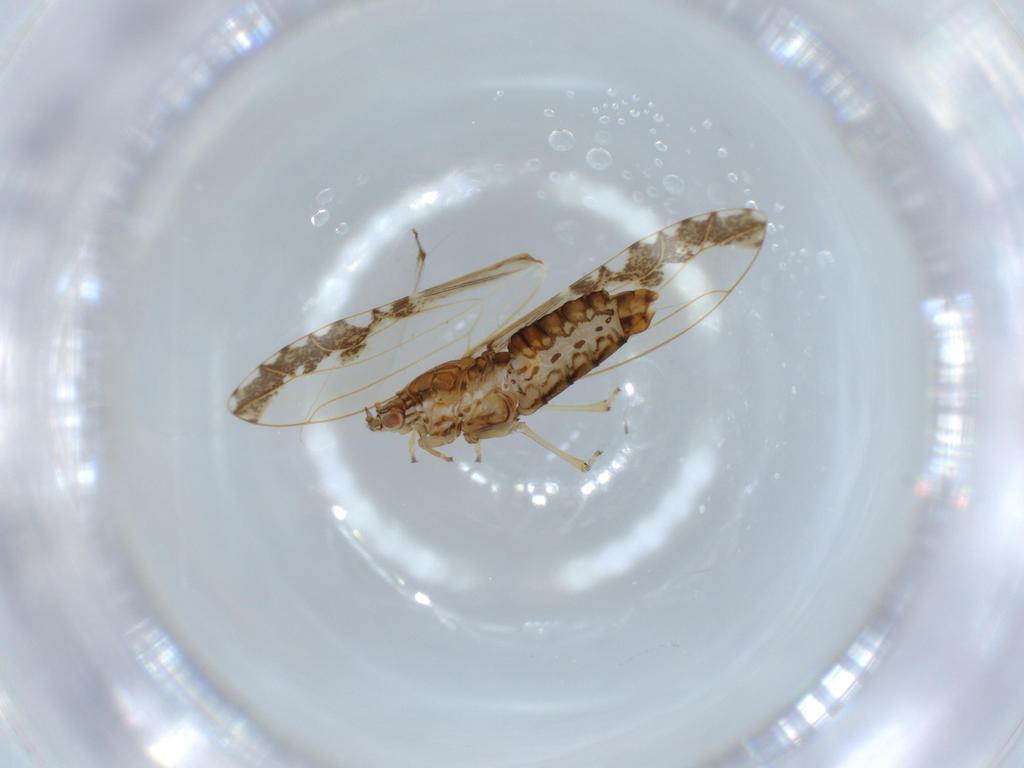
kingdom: Animalia
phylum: Arthropoda
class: Insecta
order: Hemiptera
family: Triozidae
